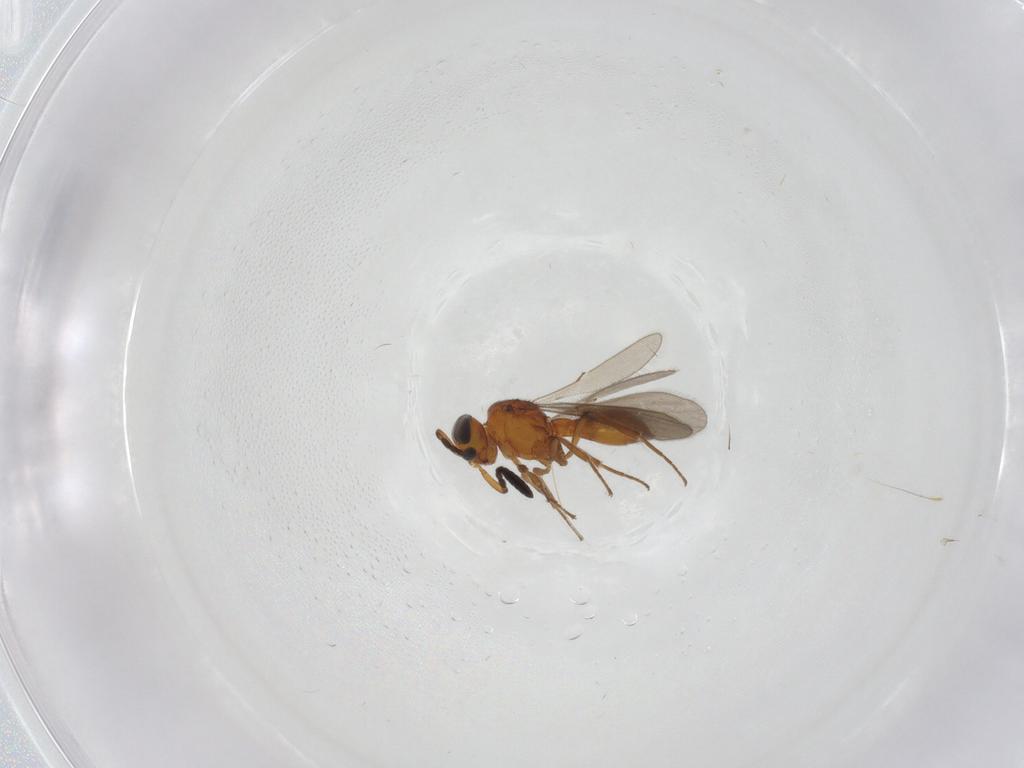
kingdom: Animalia
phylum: Arthropoda
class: Insecta
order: Hymenoptera
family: Scelionidae
